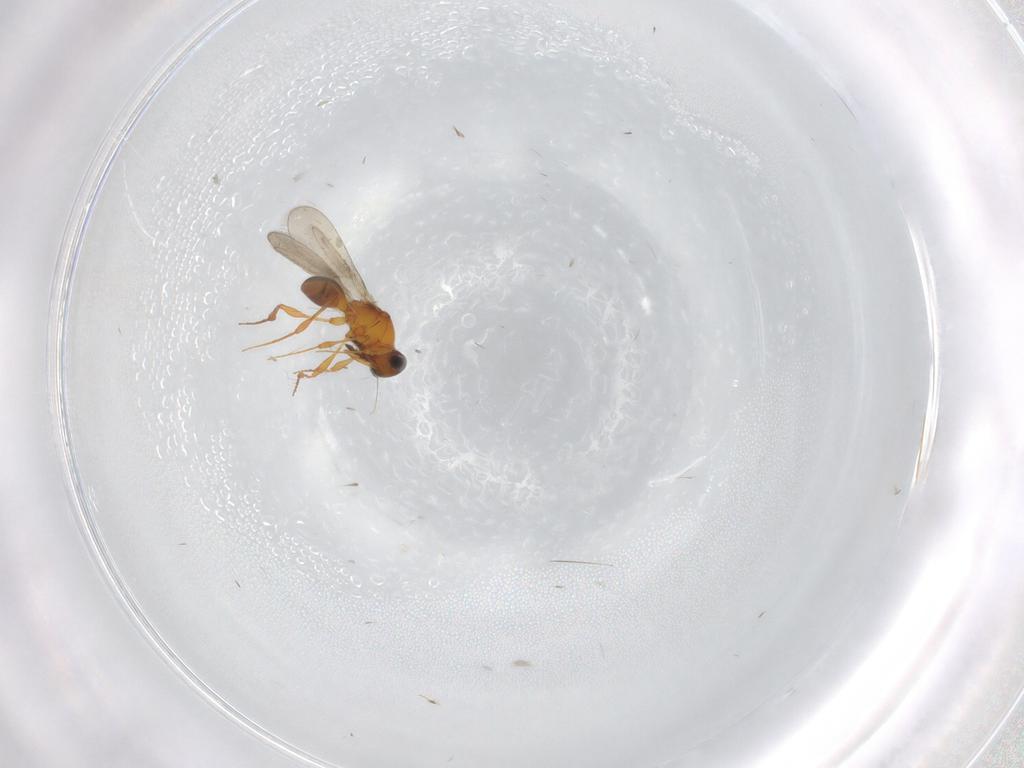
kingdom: Animalia
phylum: Arthropoda
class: Insecta
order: Hymenoptera
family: Platygastridae
